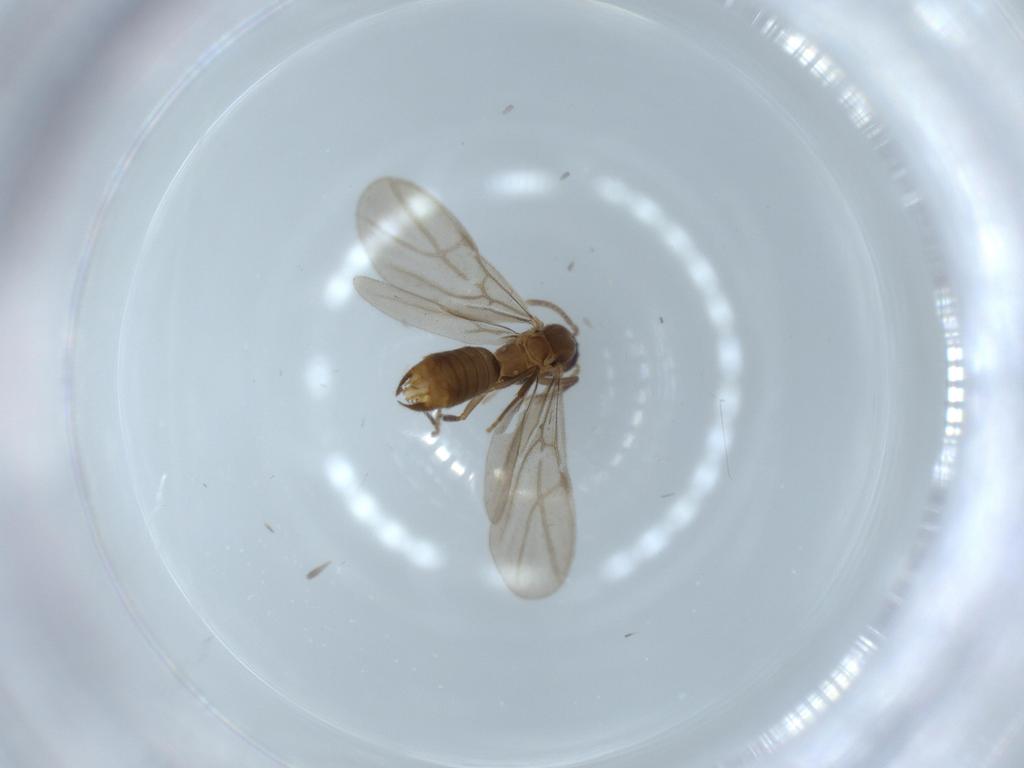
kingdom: Animalia
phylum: Arthropoda
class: Insecta
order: Hymenoptera
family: Formicidae
